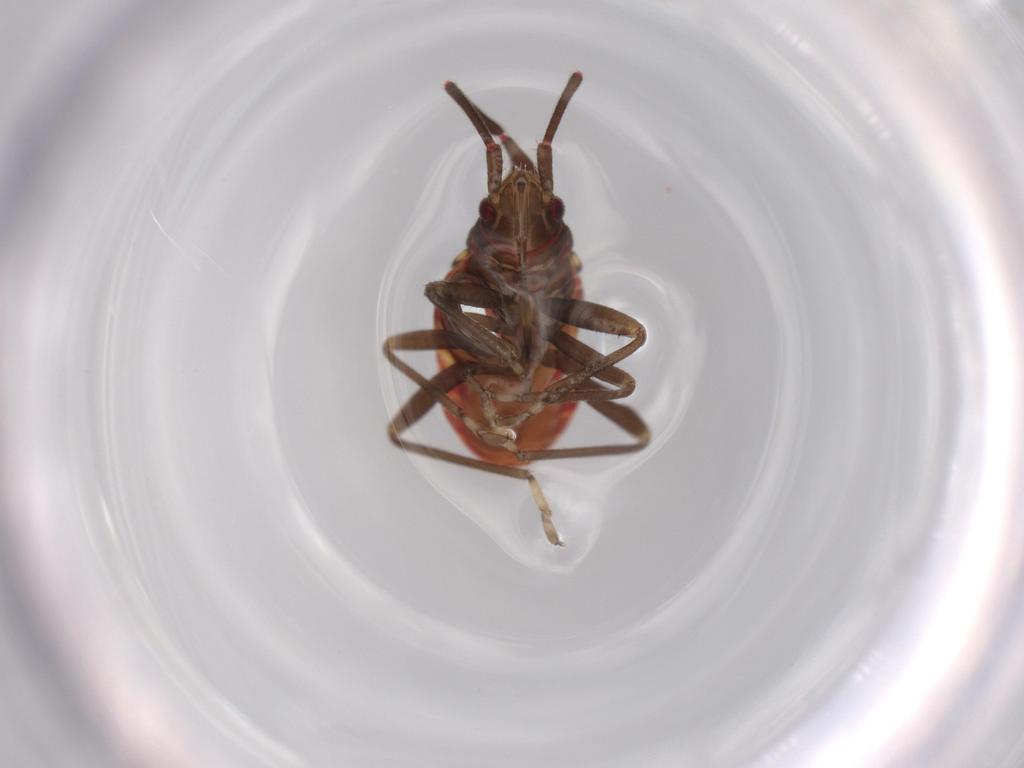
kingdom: Animalia
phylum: Arthropoda
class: Insecta
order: Hemiptera
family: Rhyparochromidae
